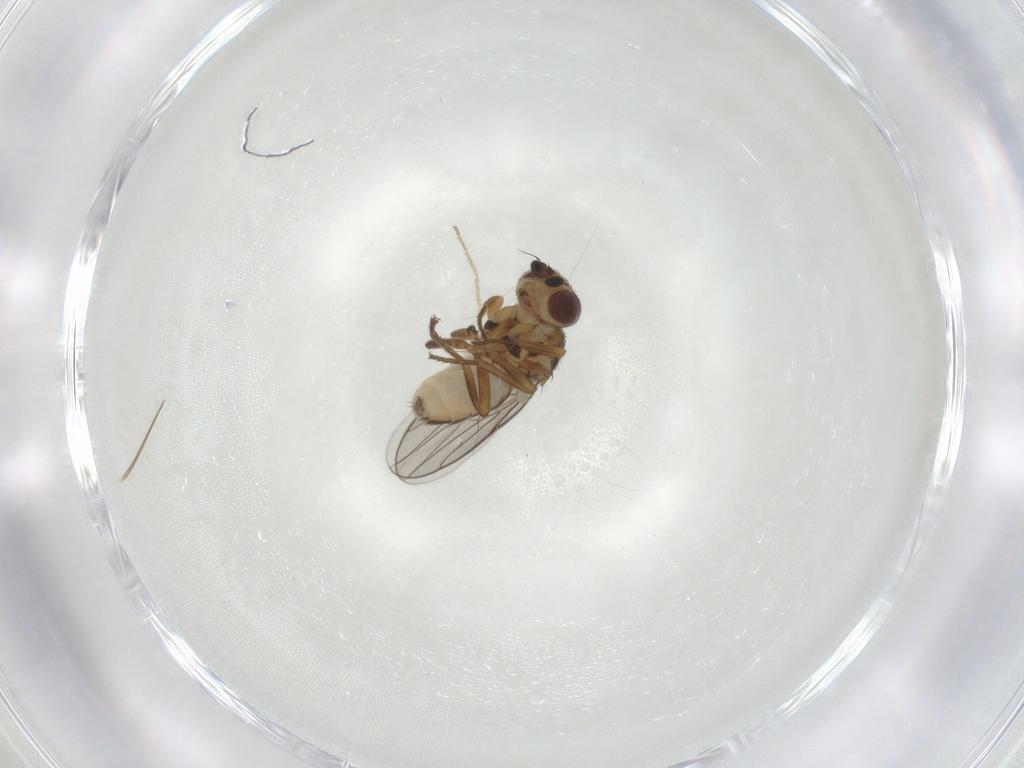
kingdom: Animalia
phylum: Arthropoda
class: Insecta
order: Diptera
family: Chloropidae
